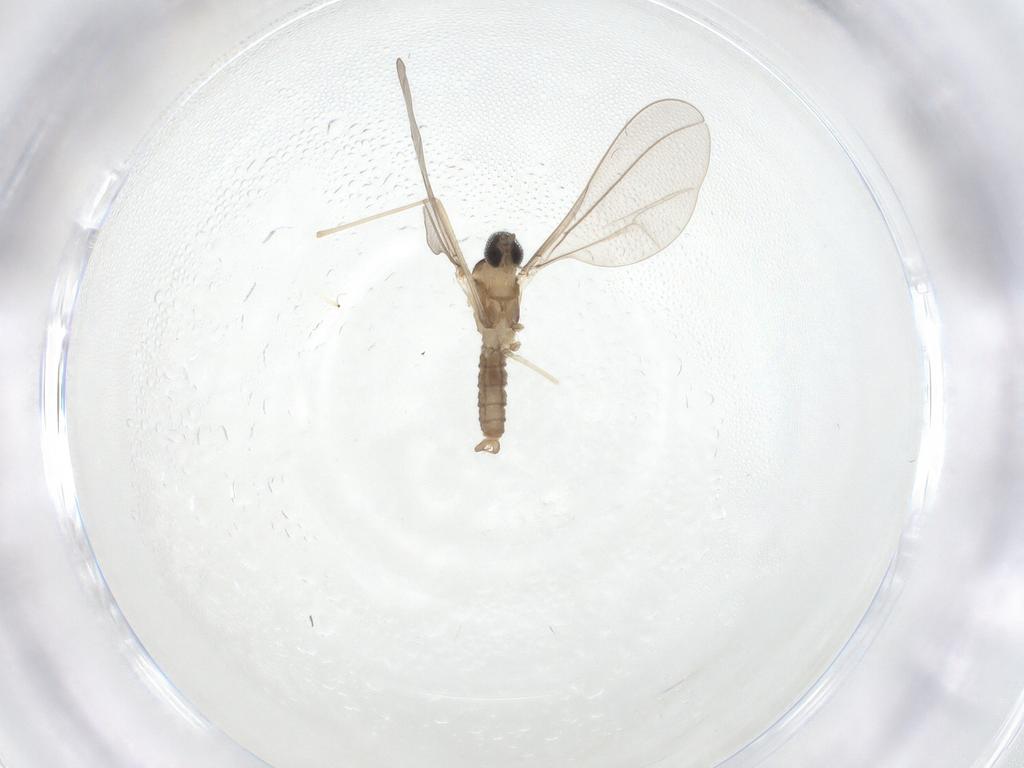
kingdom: Animalia
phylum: Arthropoda
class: Insecta
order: Diptera
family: Cecidomyiidae
